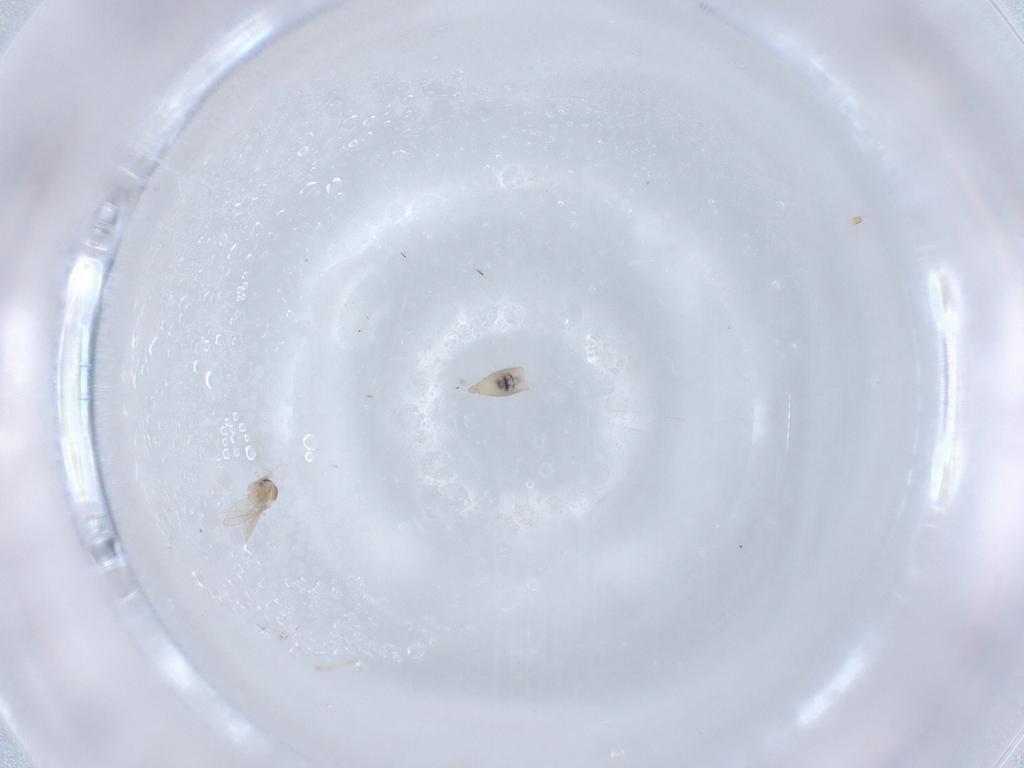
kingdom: Animalia
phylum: Arthropoda
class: Insecta
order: Diptera
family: Cecidomyiidae
